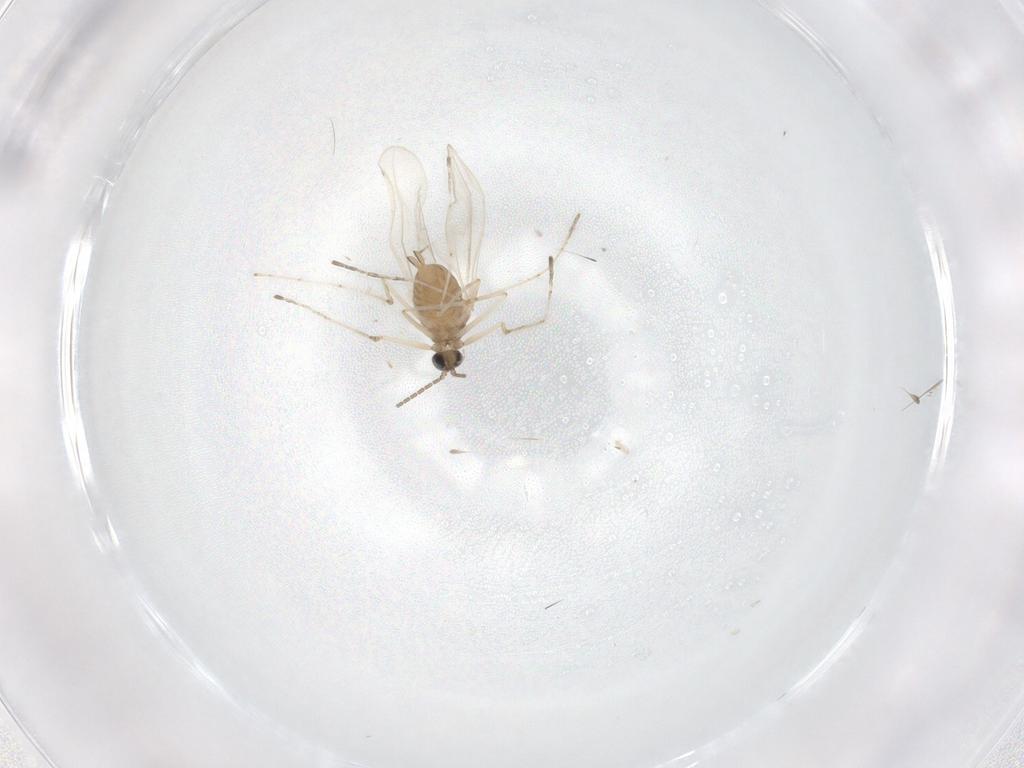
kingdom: Animalia
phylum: Arthropoda
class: Insecta
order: Diptera
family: Cecidomyiidae
